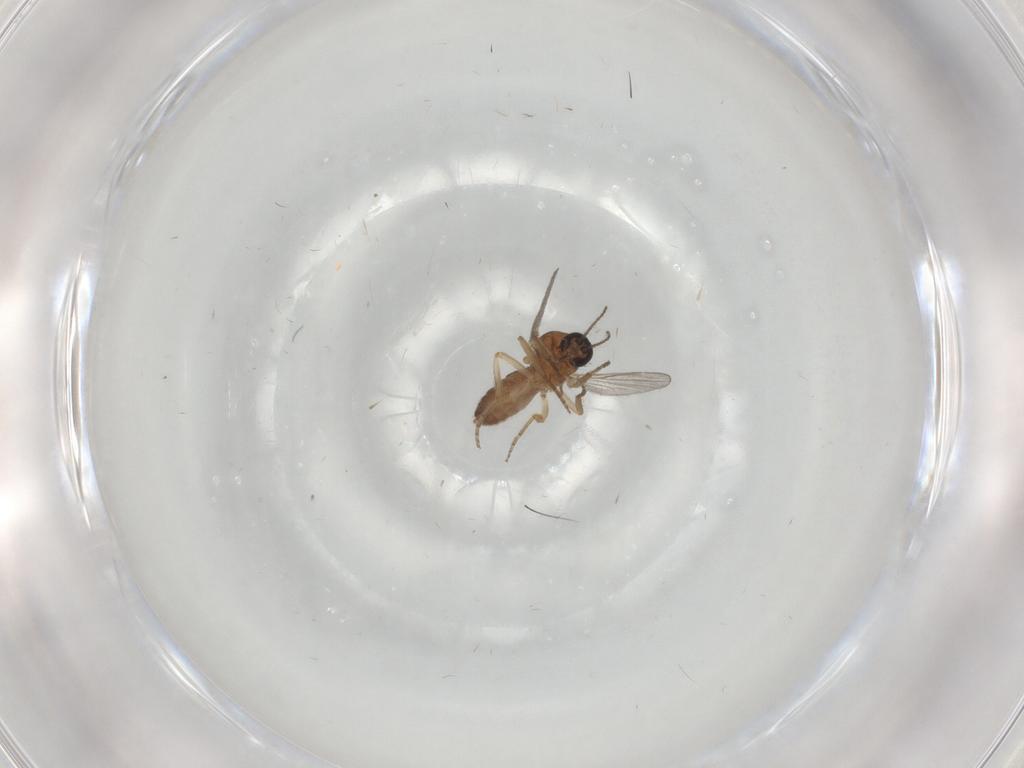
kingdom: Animalia
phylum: Arthropoda
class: Insecta
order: Diptera
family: Ceratopogonidae
